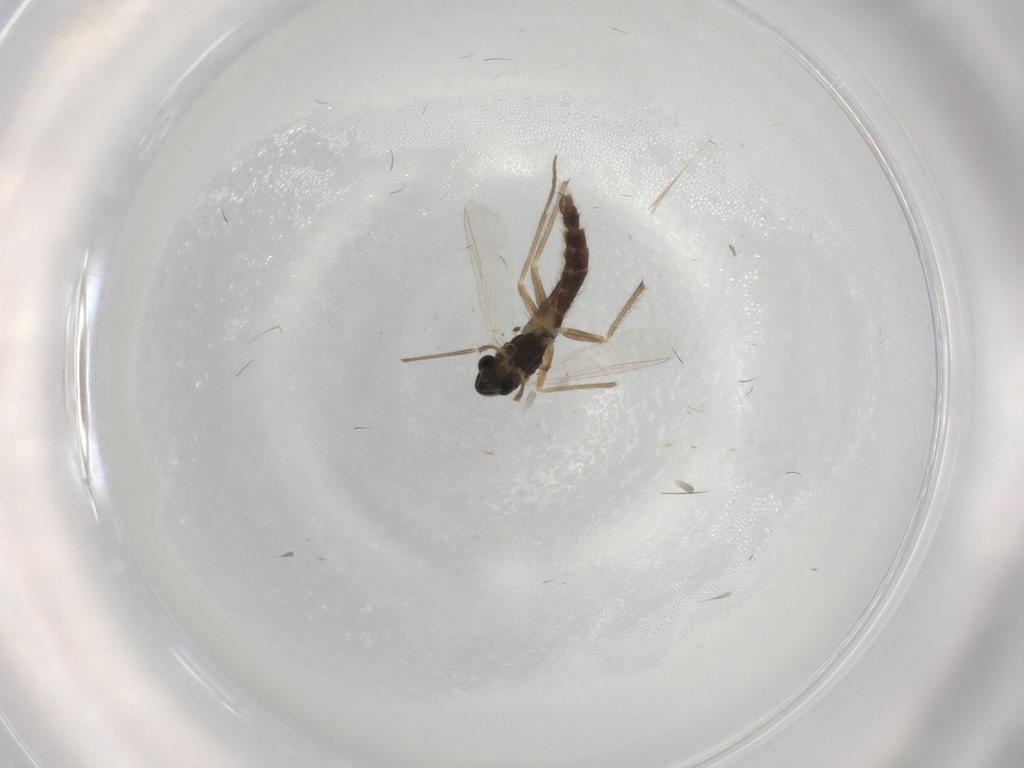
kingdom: Animalia
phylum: Arthropoda
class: Insecta
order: Diptera
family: Chironomidae
